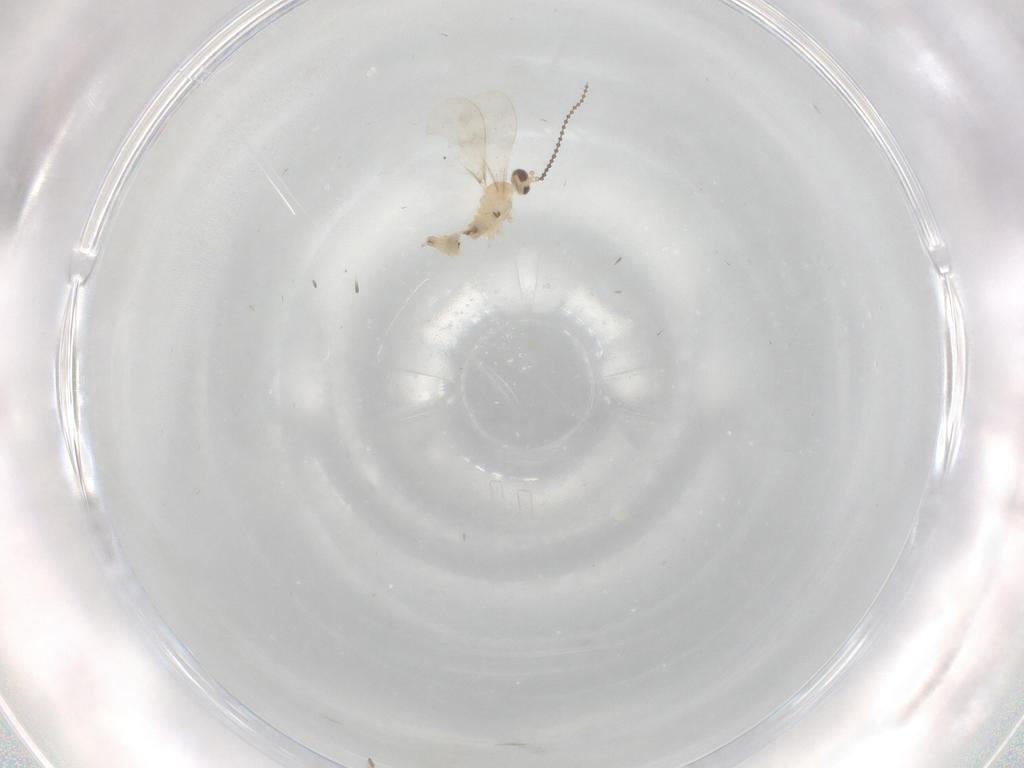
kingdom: Animalia
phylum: Arthropoda
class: Insecta
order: Diptera
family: Cecidomyiidae
